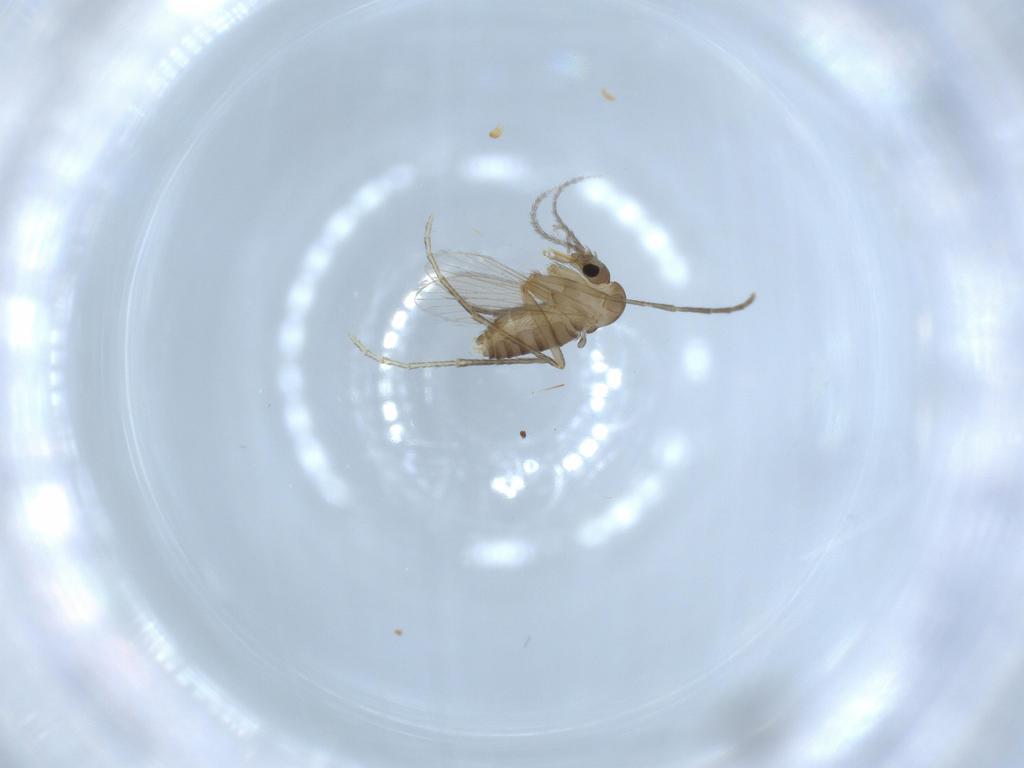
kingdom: Animalia
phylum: Arthropoda
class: Insecta
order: Diptera
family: Psychodidae
